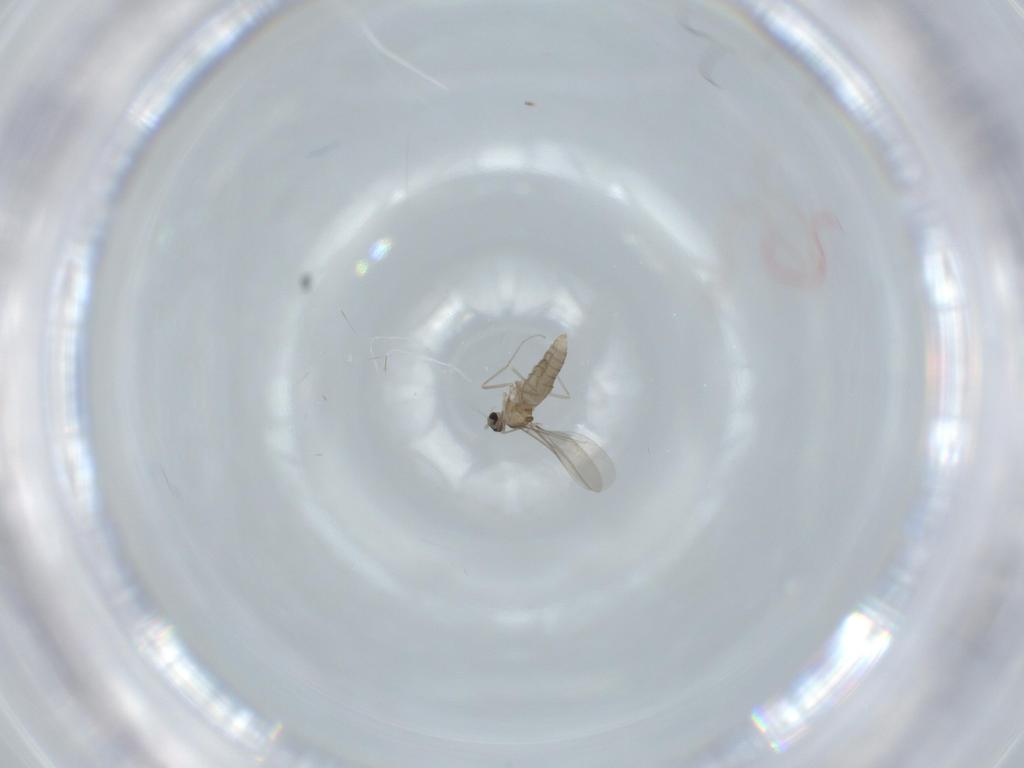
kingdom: Animalia
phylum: Arthropoda
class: Insecta
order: Diptera
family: Cecidomyiidae
